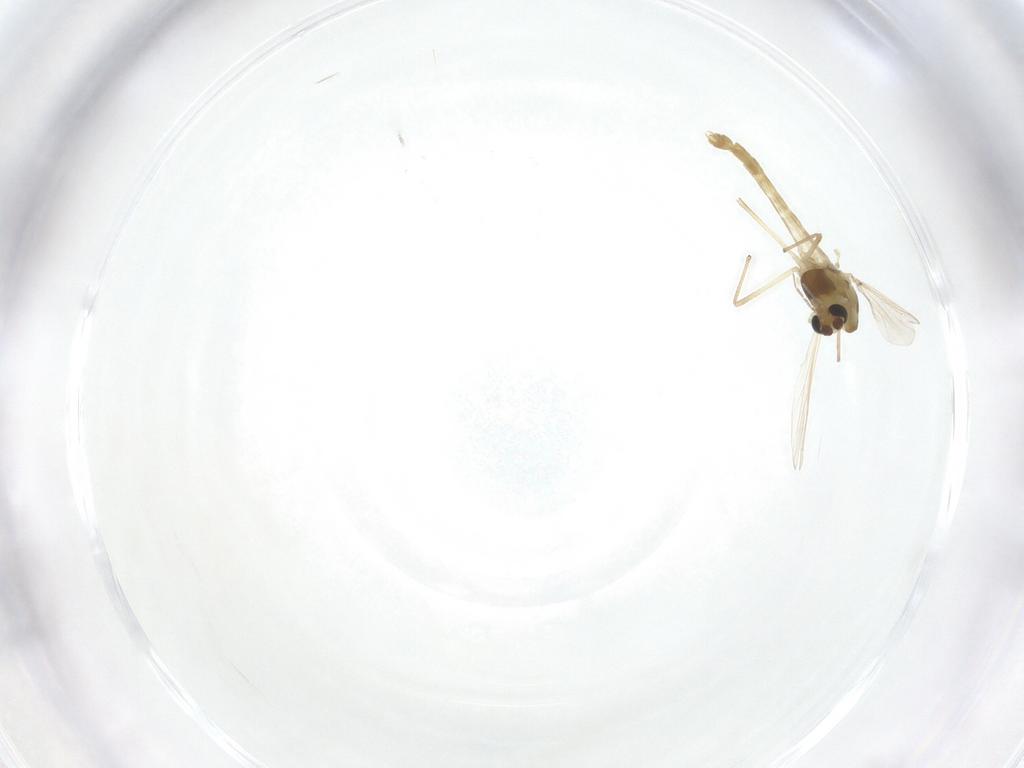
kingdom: Animalia
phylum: Arthropoda
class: Insecta
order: Diptera
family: Chironomidae
